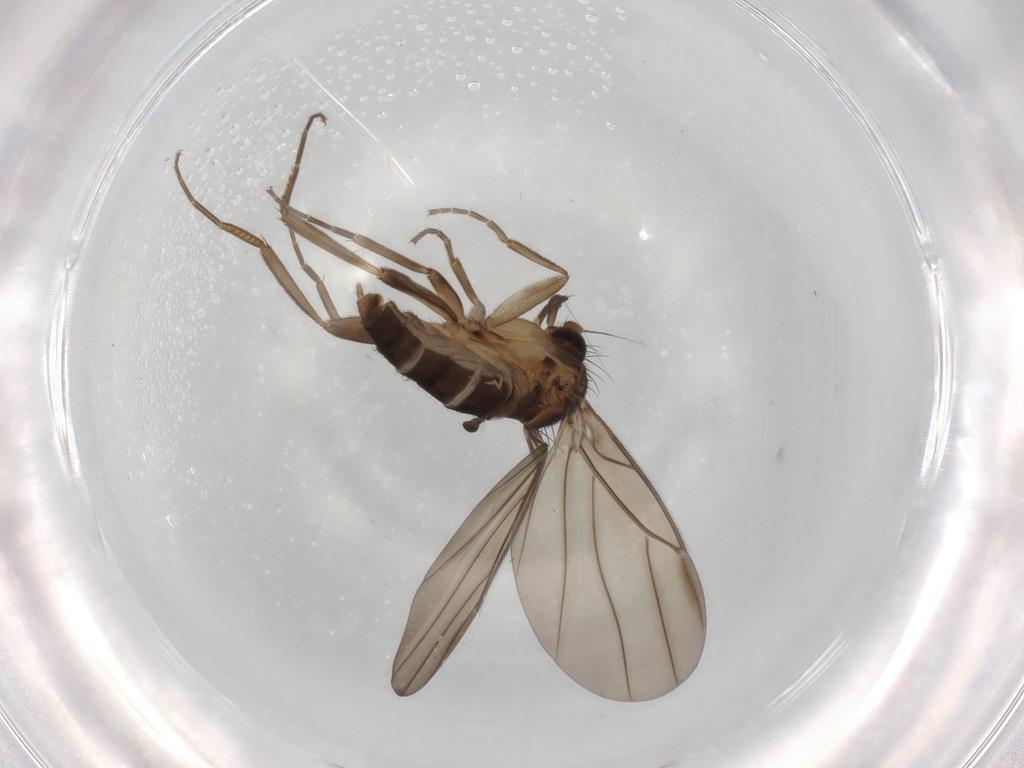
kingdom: Animalia
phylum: Arthropoda
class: Insecta
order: Diptera
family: Phoridae
